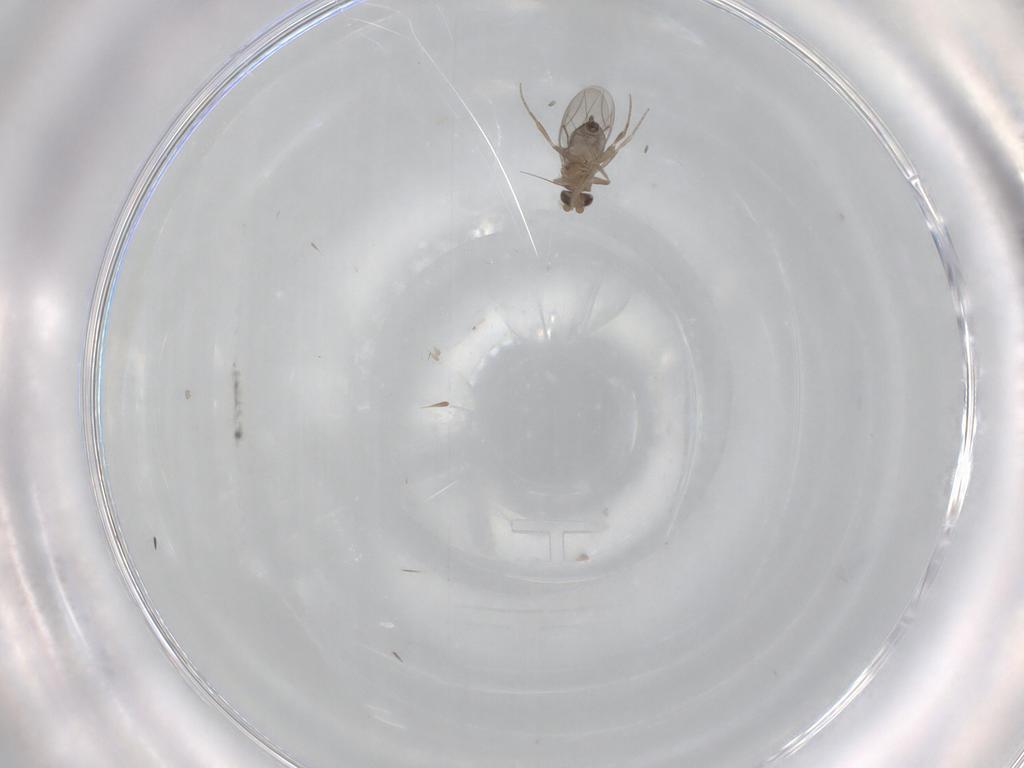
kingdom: Animalia
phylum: Arthropoda
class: Insecta
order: Diptera
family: Phoridae
